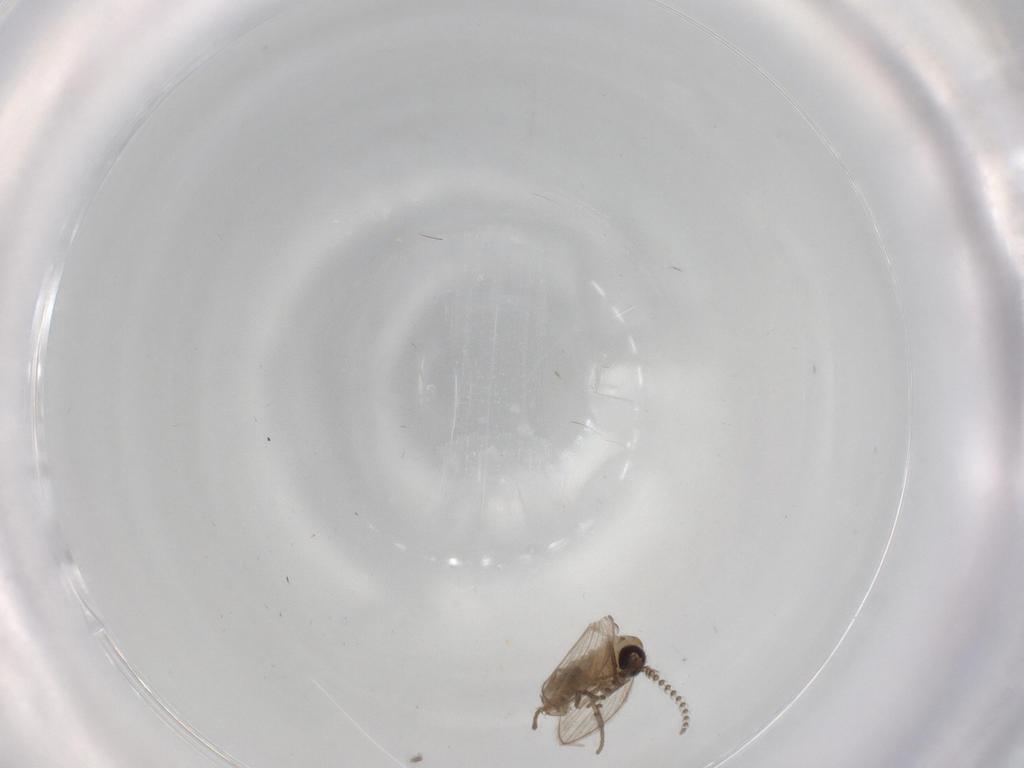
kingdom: Animalia
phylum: Arthropoda
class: Insecta
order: Diptera
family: Psychodidae
